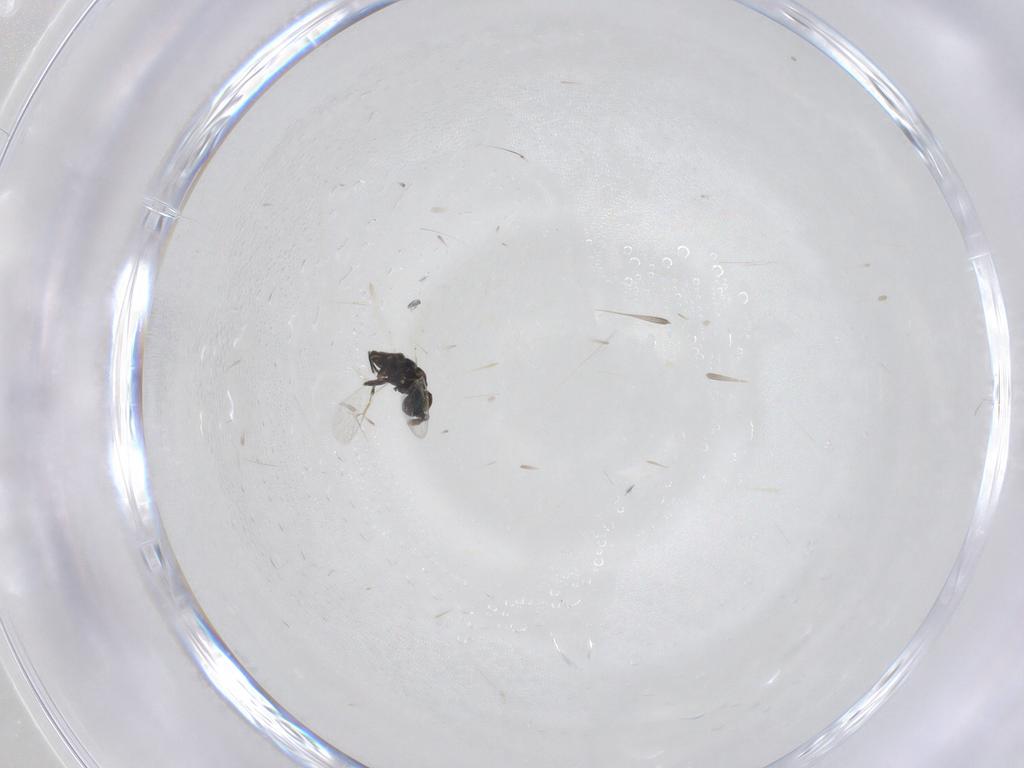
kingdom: Animalia
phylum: Arthropoda
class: Insecta
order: Hymenoptera
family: Eulophidae
